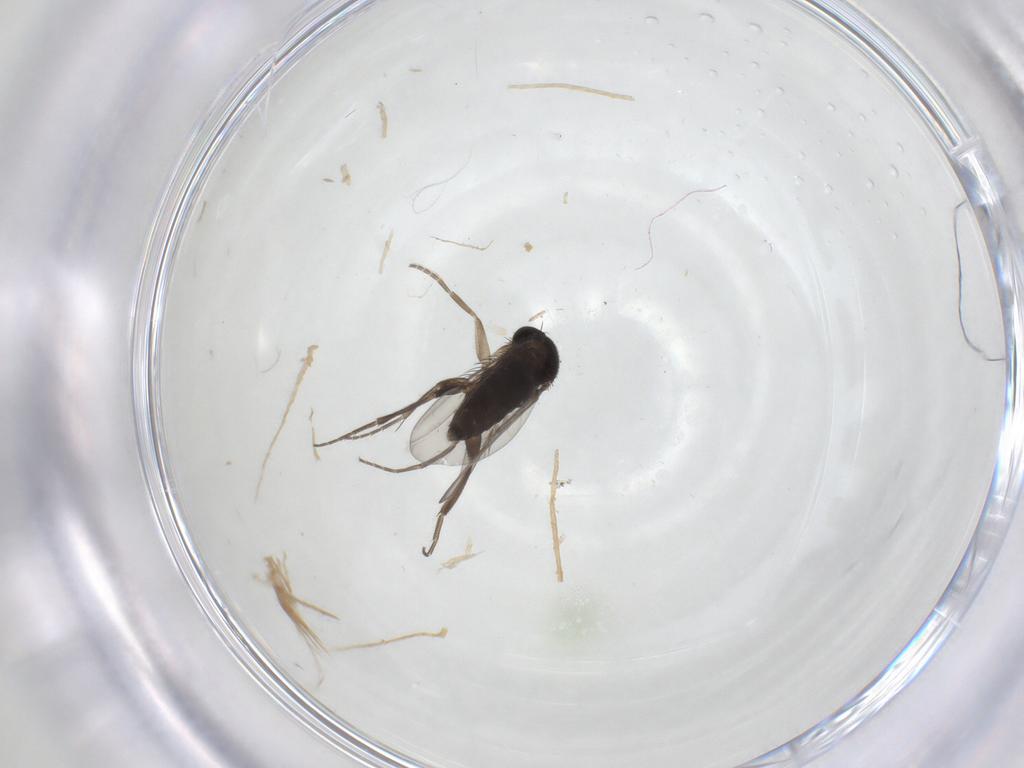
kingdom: Animalia
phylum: Arthropoda
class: Insecta
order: Diptera
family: Phoridae
